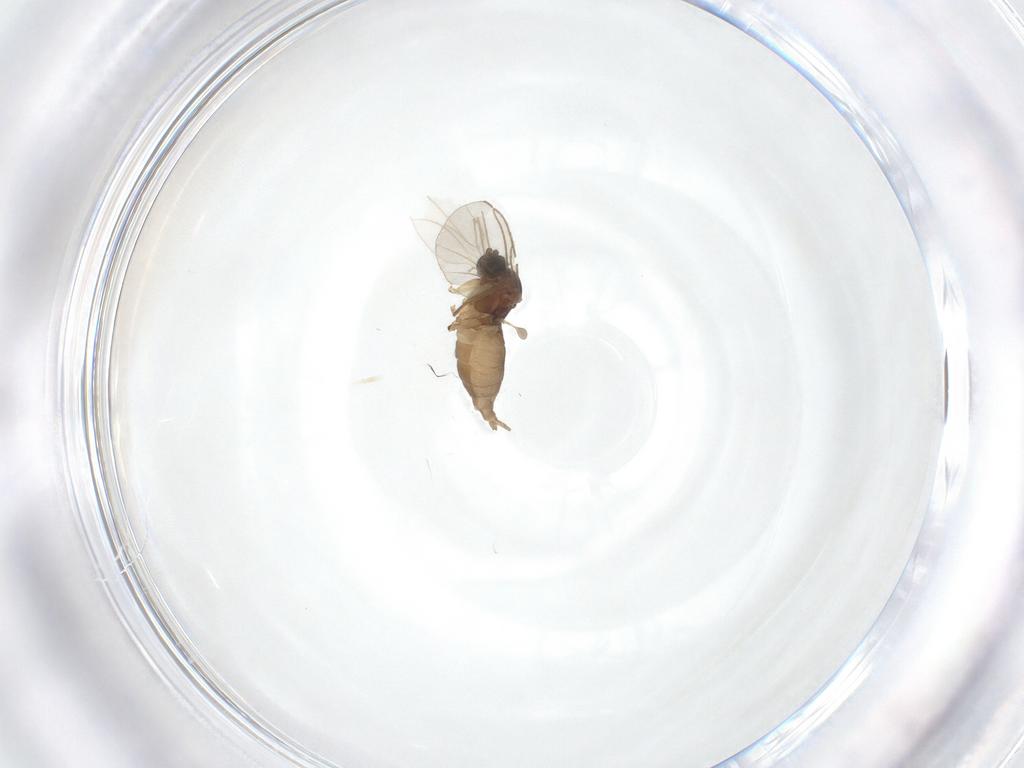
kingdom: Animalia
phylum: Arthropoda
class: Insecta
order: Diptera
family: Sciaridae
